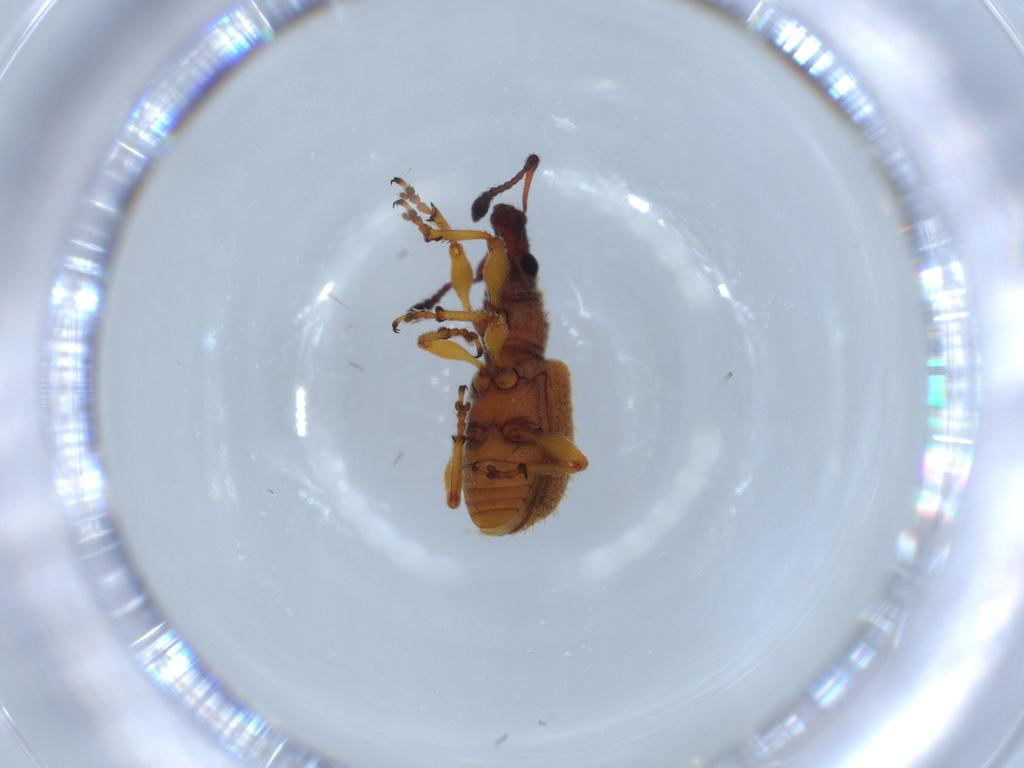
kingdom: Animalia
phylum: Arthropoda
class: Insecta
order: Coleoptera
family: Curculionidae
